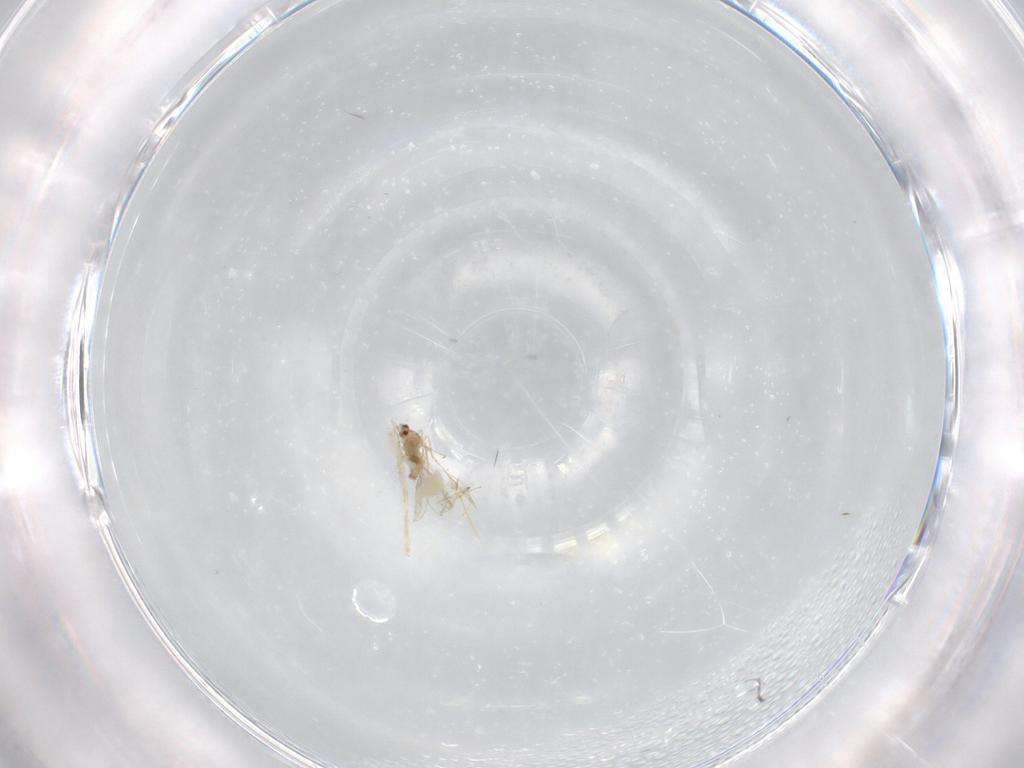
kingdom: Animalia
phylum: Arthropoda
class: Insecta
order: Diptera
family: Cecidomyiidae
